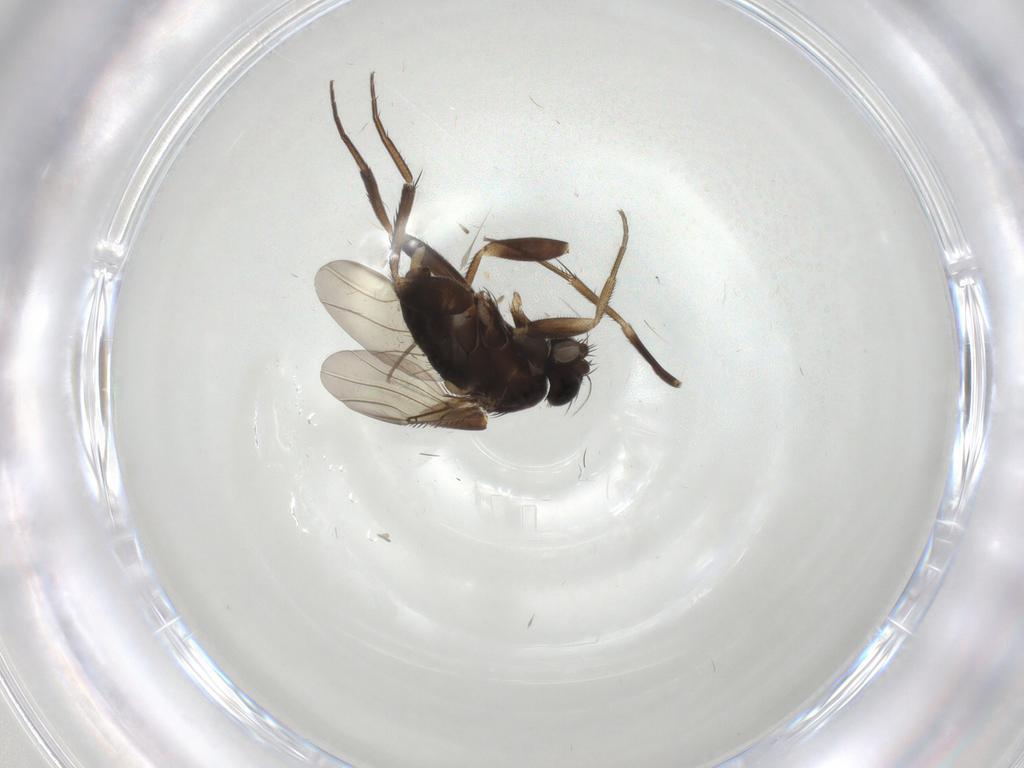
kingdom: Animalia
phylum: Arthropoda
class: Insecta
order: Diptera
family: Phoridae
